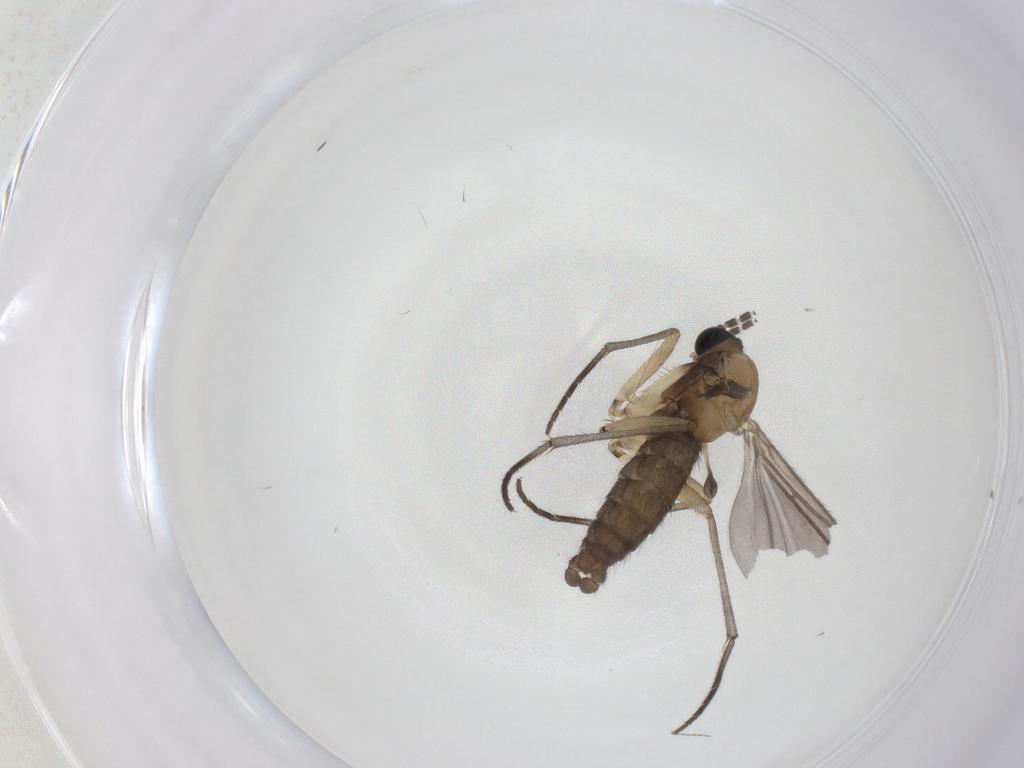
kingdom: Animalia
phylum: Arthropoda
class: Insecta
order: Diptera
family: Sciaridae
